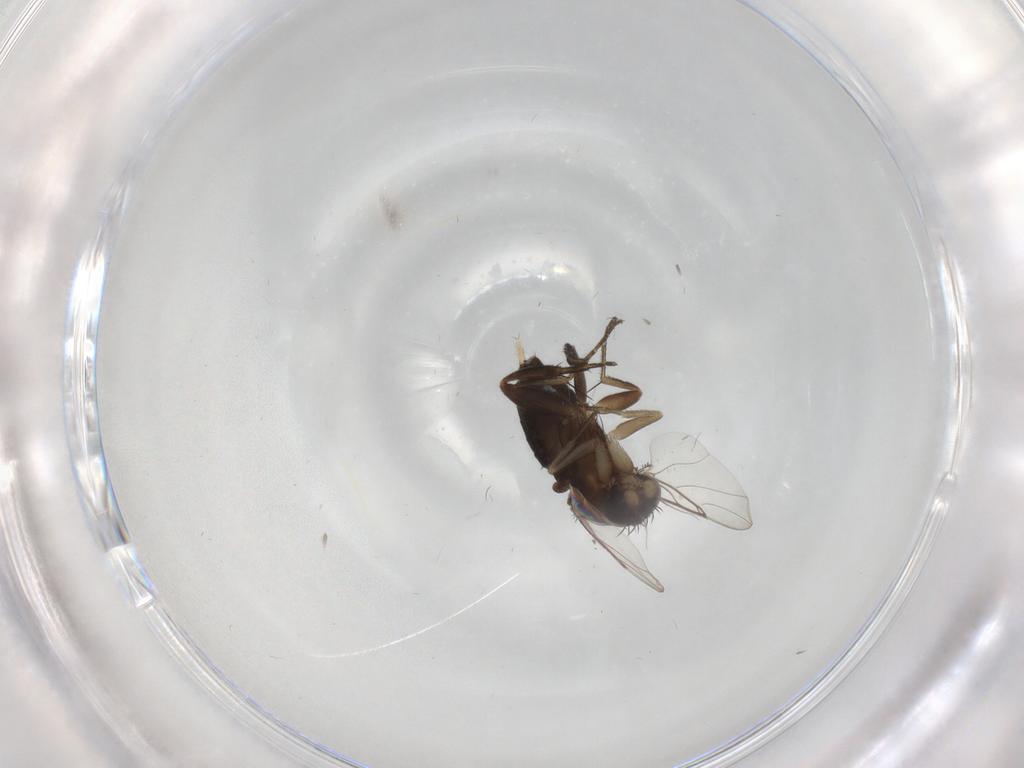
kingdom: Animalia
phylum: Arthropoda
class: Insecta
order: Diptera
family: Phoridae
